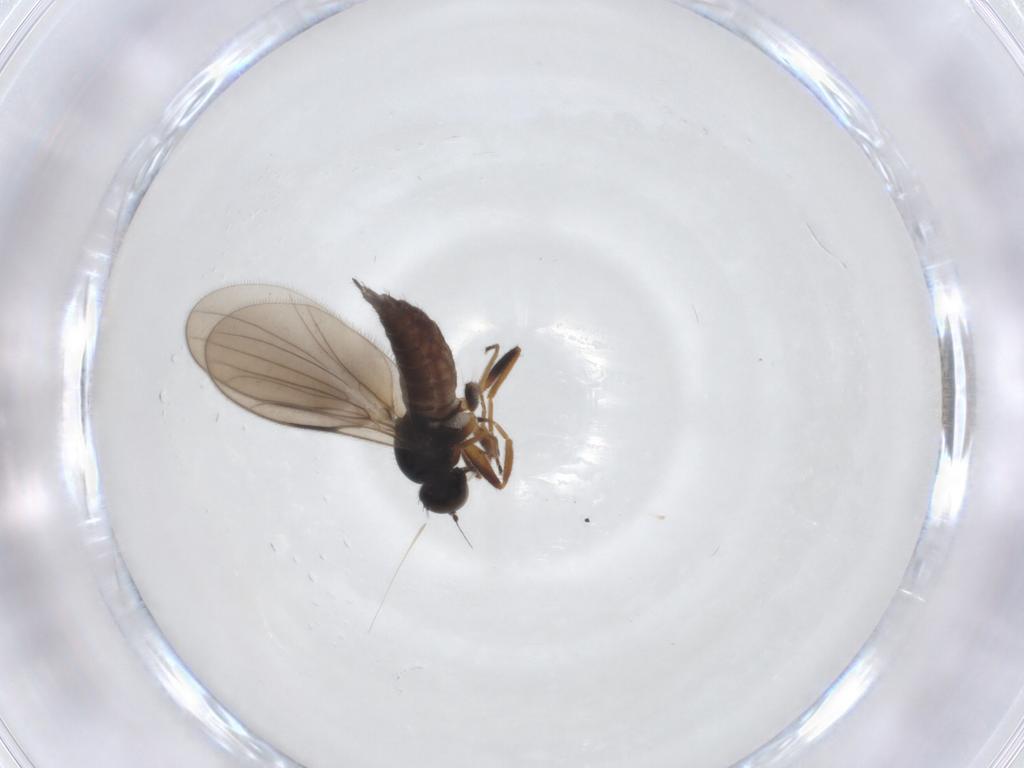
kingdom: Animalia
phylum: Arthropoda
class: Insecta
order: Diptera
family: Hybotidae
